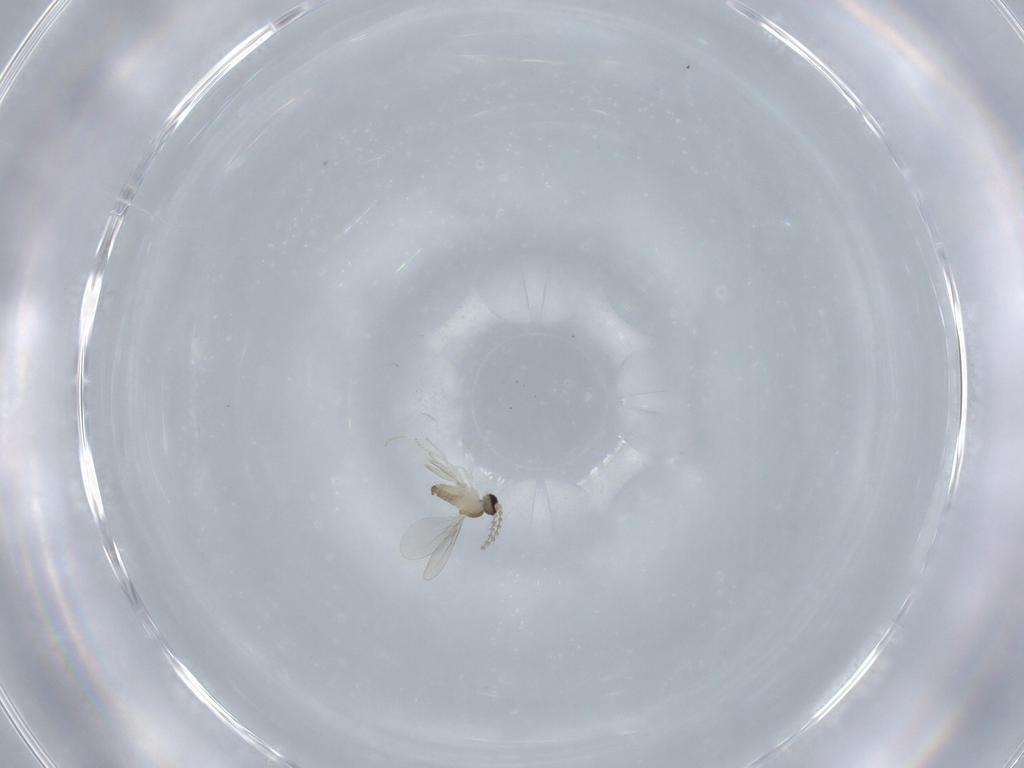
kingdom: Animalia
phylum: Arthropoda
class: Insecta
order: Diptera
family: Cecidomyiidae
